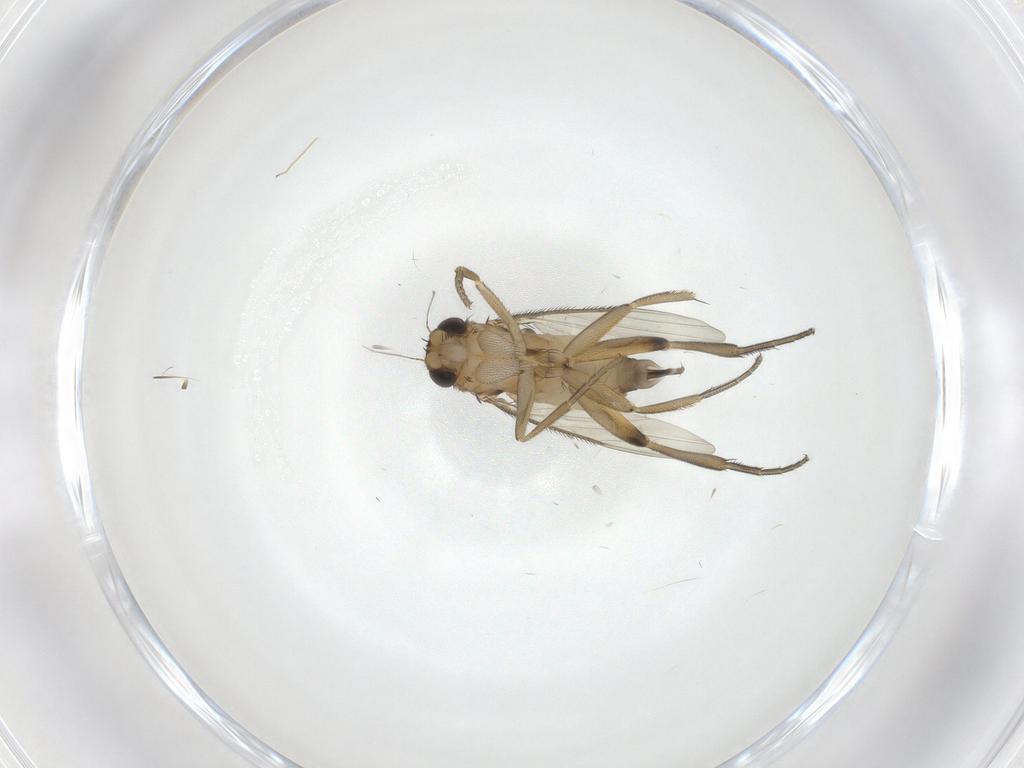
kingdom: Animalia
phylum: Arthropoda
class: Insecta
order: Diptera
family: Phoridae
